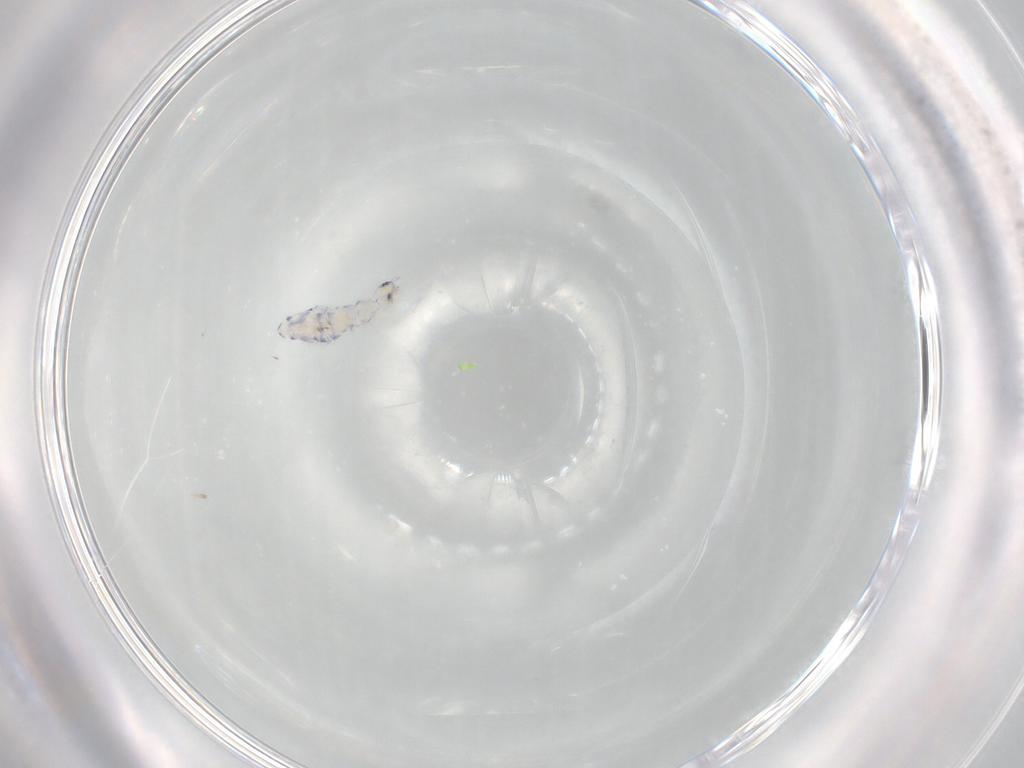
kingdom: Animalia
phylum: Arthropoda
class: Collembola
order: Entomobryomorpha
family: Entomobryidae
